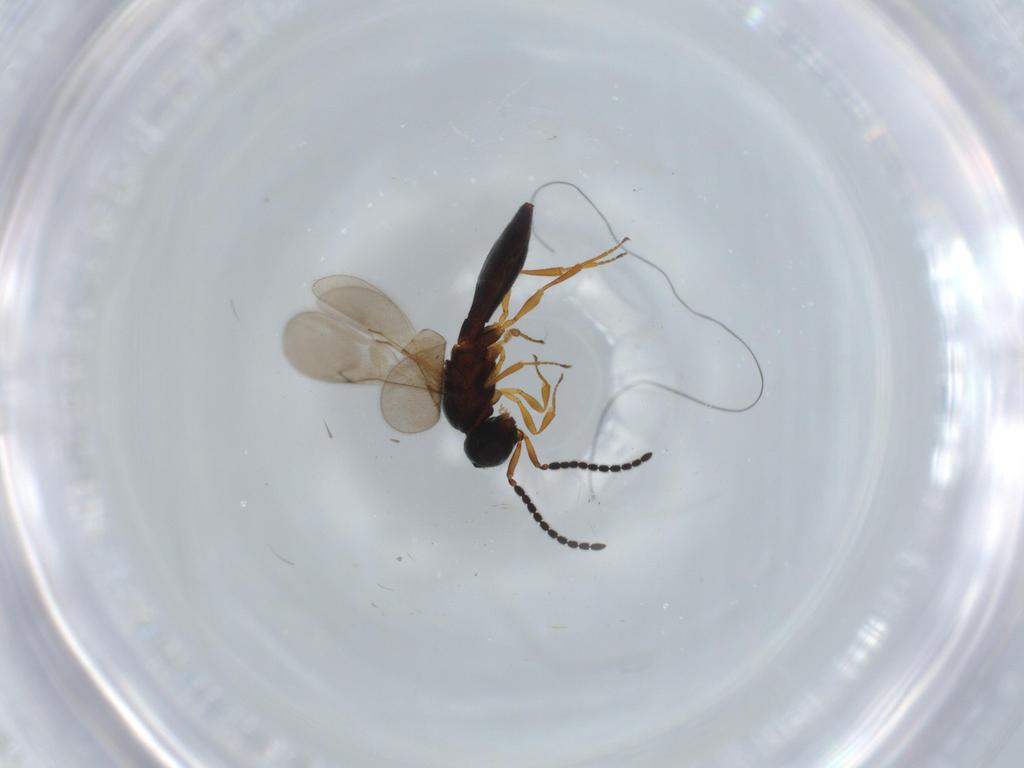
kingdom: Animalia
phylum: Arthropoda
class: Insecta
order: Hymenoptera
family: Scelionidae
